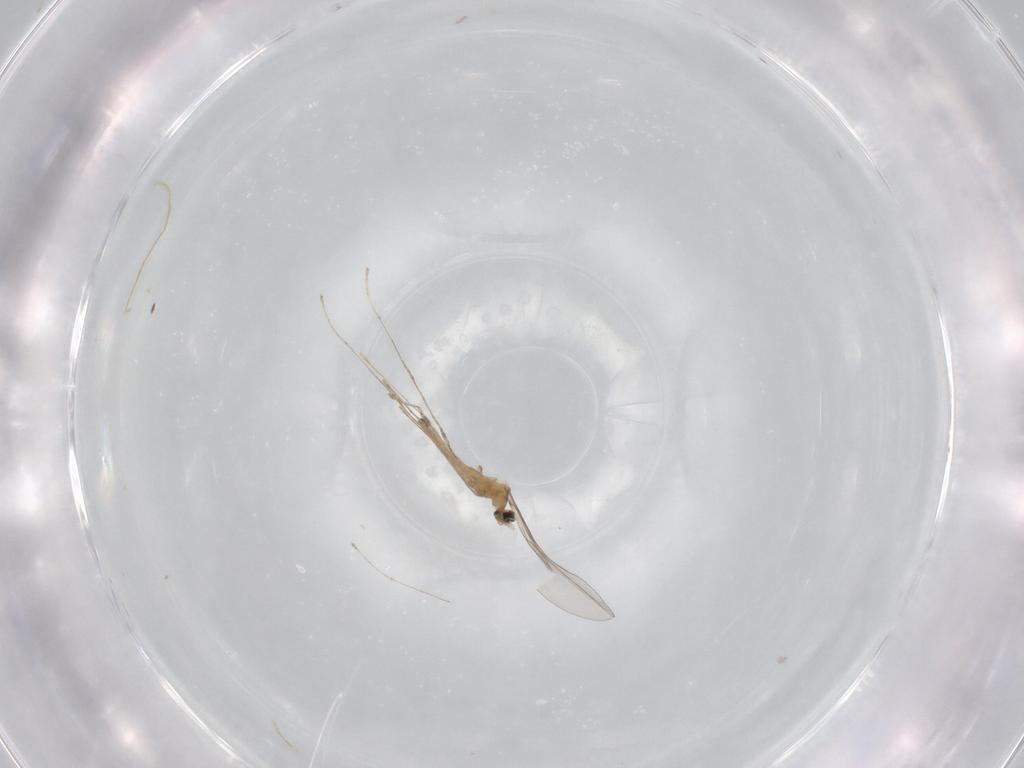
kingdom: Animalia
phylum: Arthropoda
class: Insecta
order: Diptera
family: Cecidomyiidae
